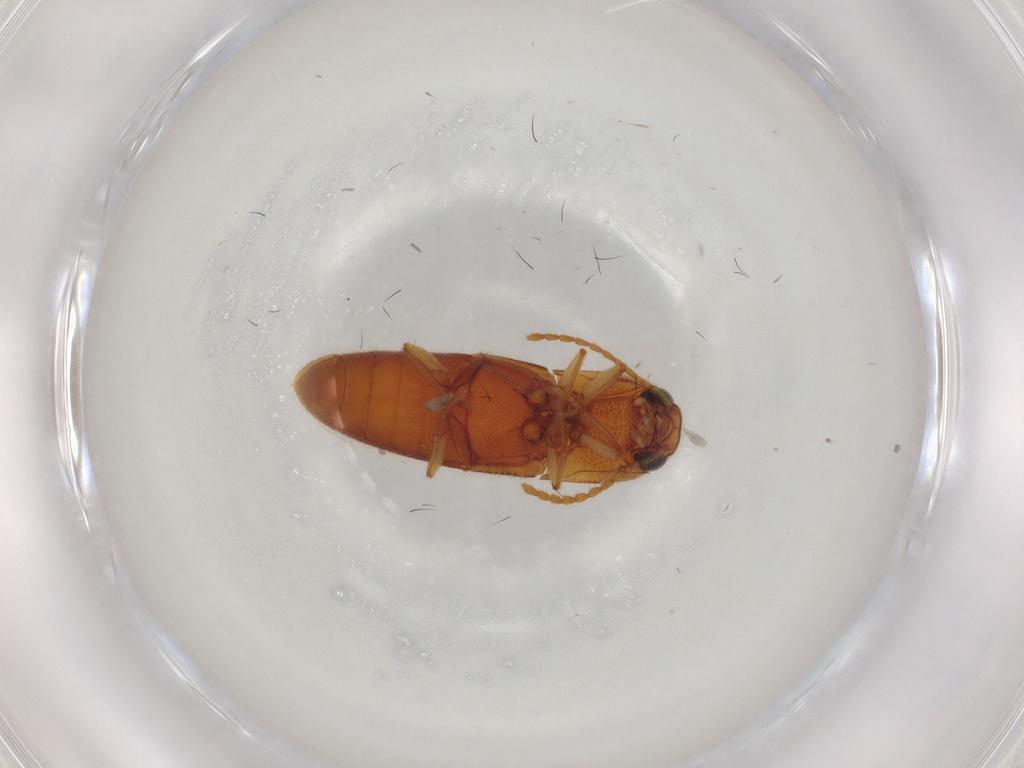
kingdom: Animalia
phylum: Arthropoda
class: Insecta
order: Coleoptera
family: Elateridae
